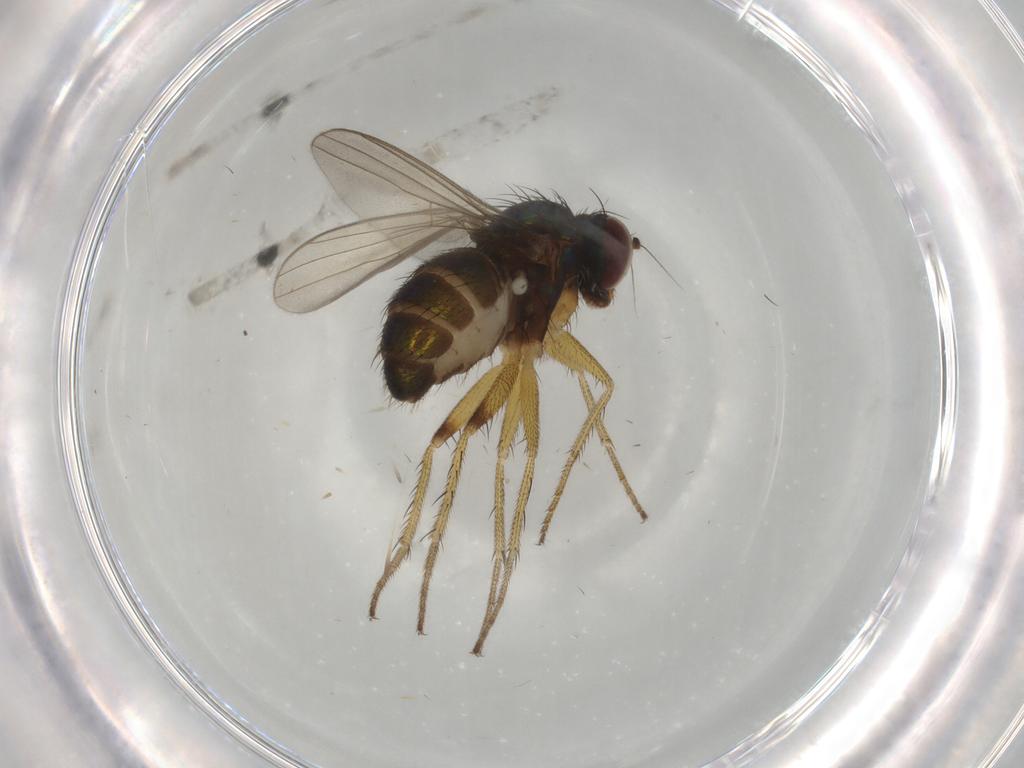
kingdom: Animalia
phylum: Arthropoda
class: Insecta
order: Diptera
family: Dolichopodidae
